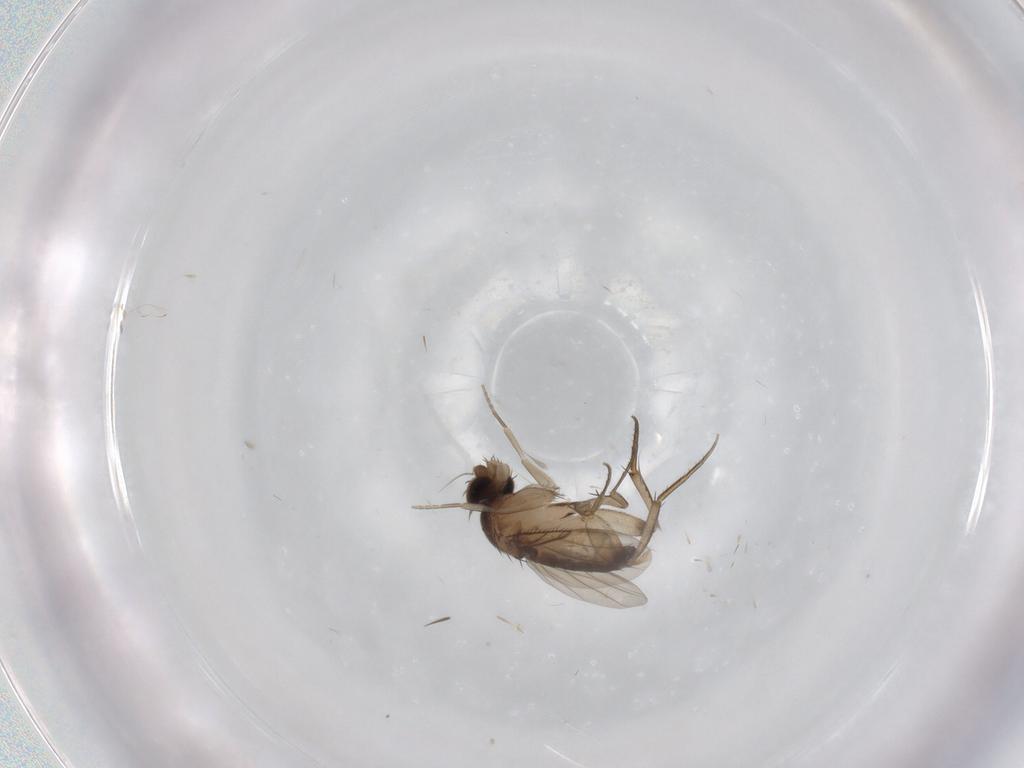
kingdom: Animalia
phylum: Arthropoda
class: Insecta
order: Diptera
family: Phoridae
